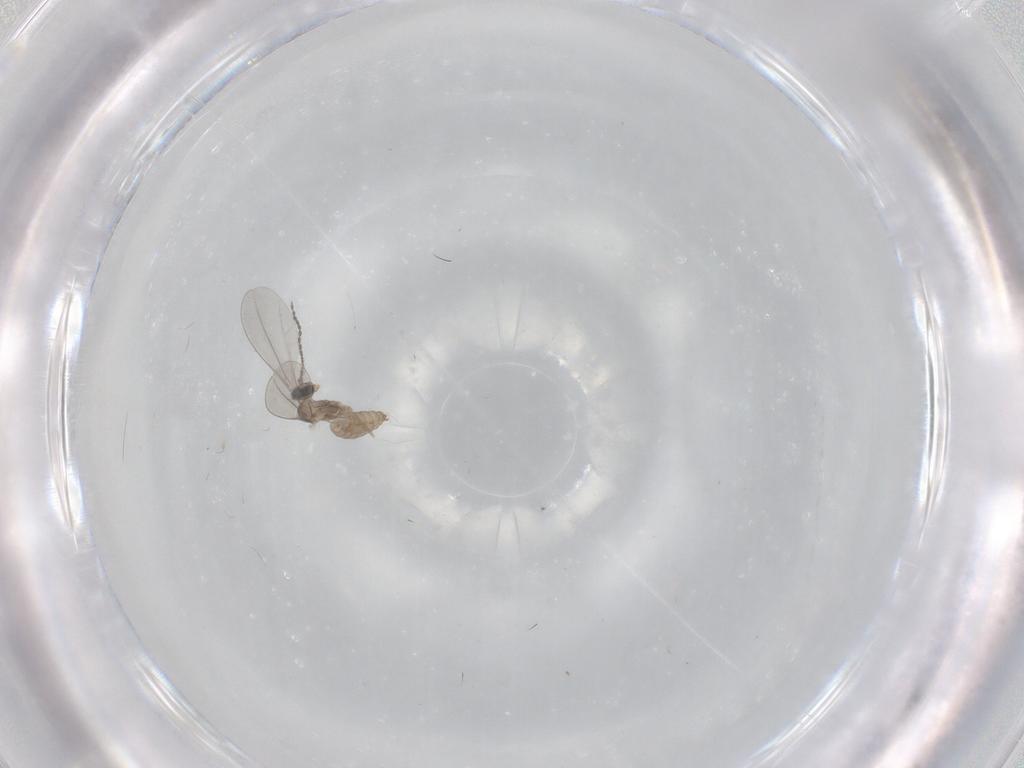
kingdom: Animalia
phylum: Arthropoda
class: Insecta
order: Diptera
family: Cecidomyiidae
